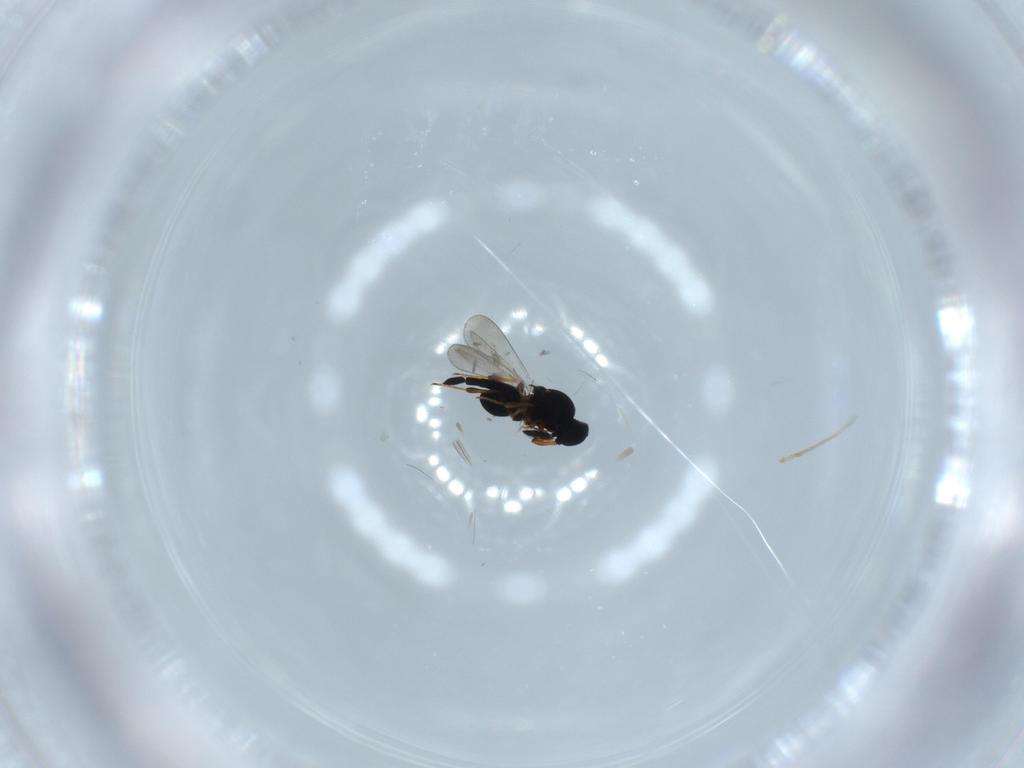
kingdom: Animalia
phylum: Arthropoda
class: Insecta
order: Hymenoptera
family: Platygastridae
